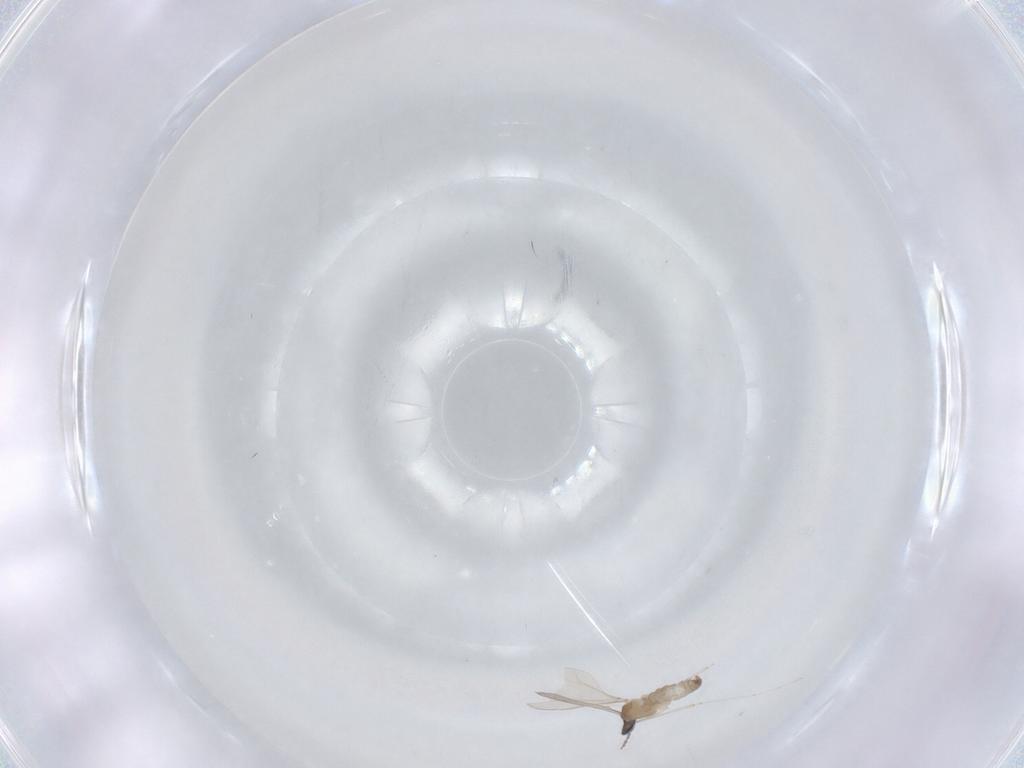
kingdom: Animalia
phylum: Arthropoda
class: Insecta
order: Diptera
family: Cecidomyiidae
